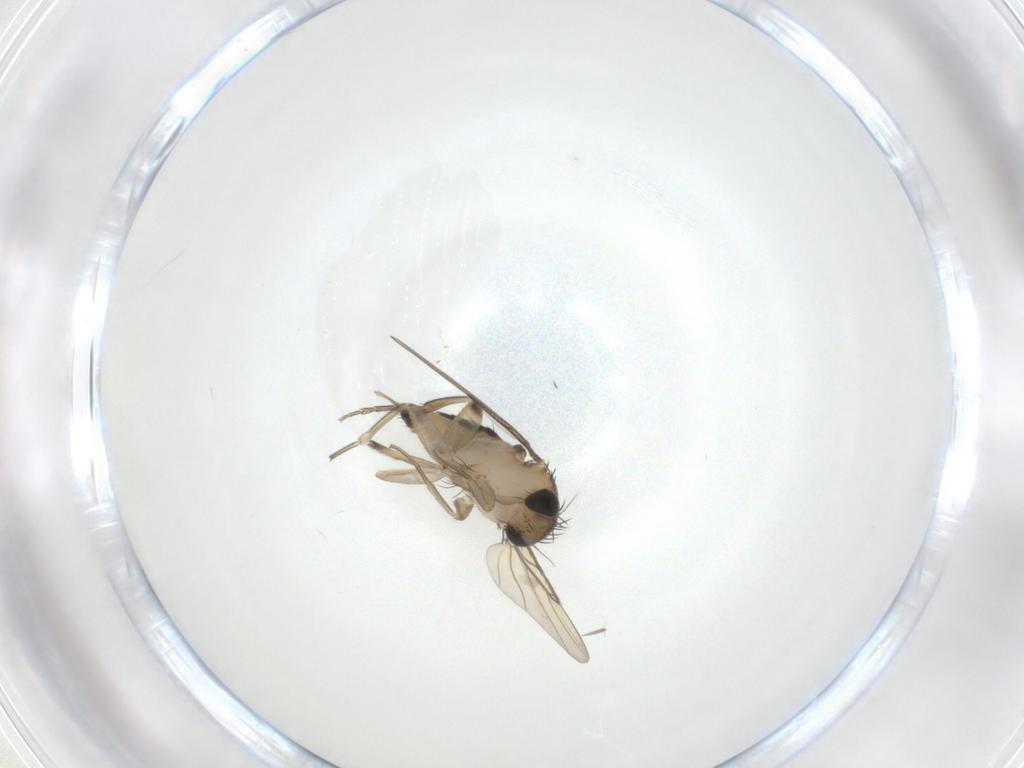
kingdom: Animalia
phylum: Arthropoda
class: Insecta
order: Diptera
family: Phoridae
